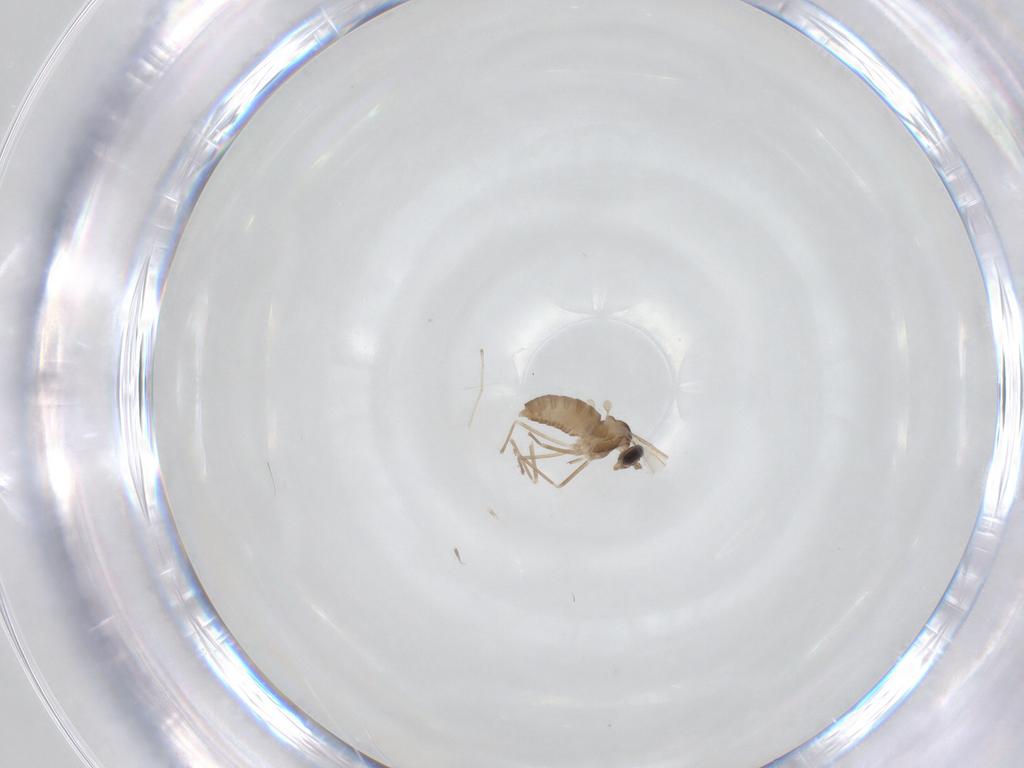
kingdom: Animalia
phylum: Arthropoda
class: Insecta
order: Diptera
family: Cecidomyiidae
